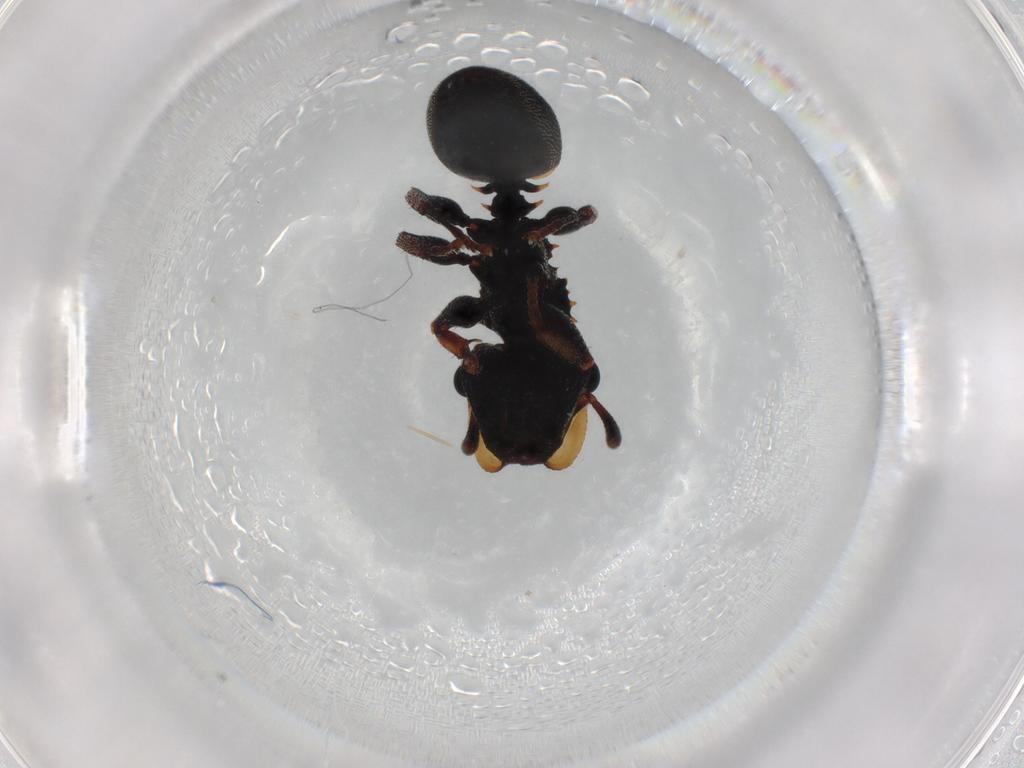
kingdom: Animalia
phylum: Arthropoda
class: Insecta
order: Hymenoptera
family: Formicidae
